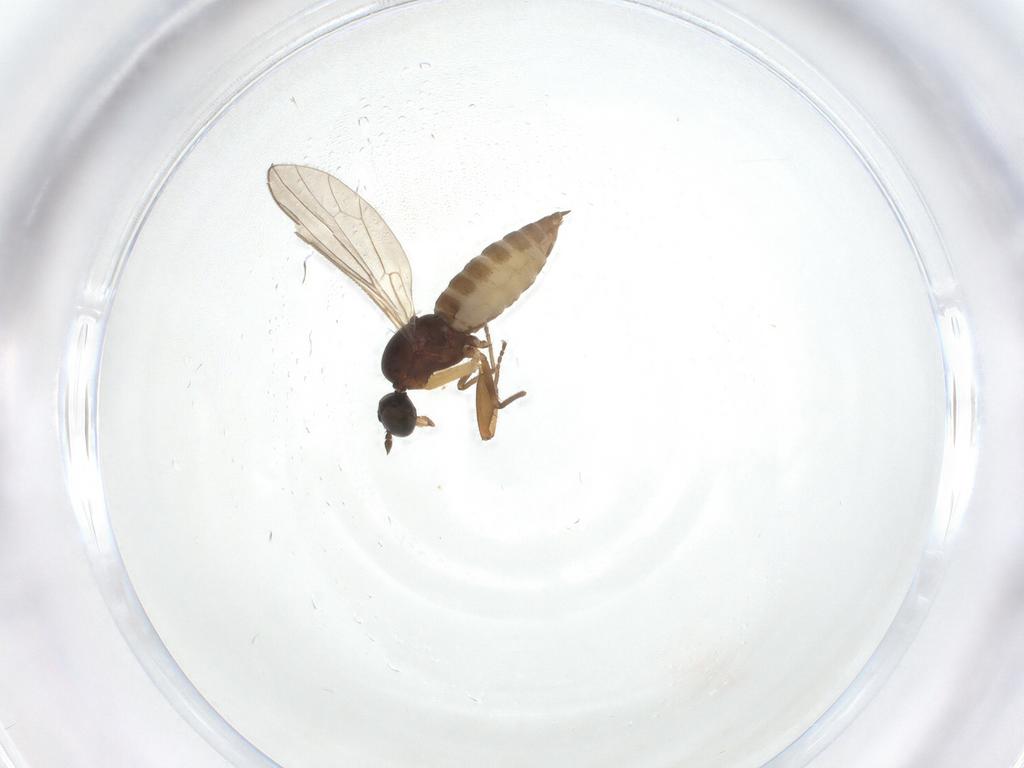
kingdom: Animalia
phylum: Arthropoda
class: Insecta
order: Diptera
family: Empididae
